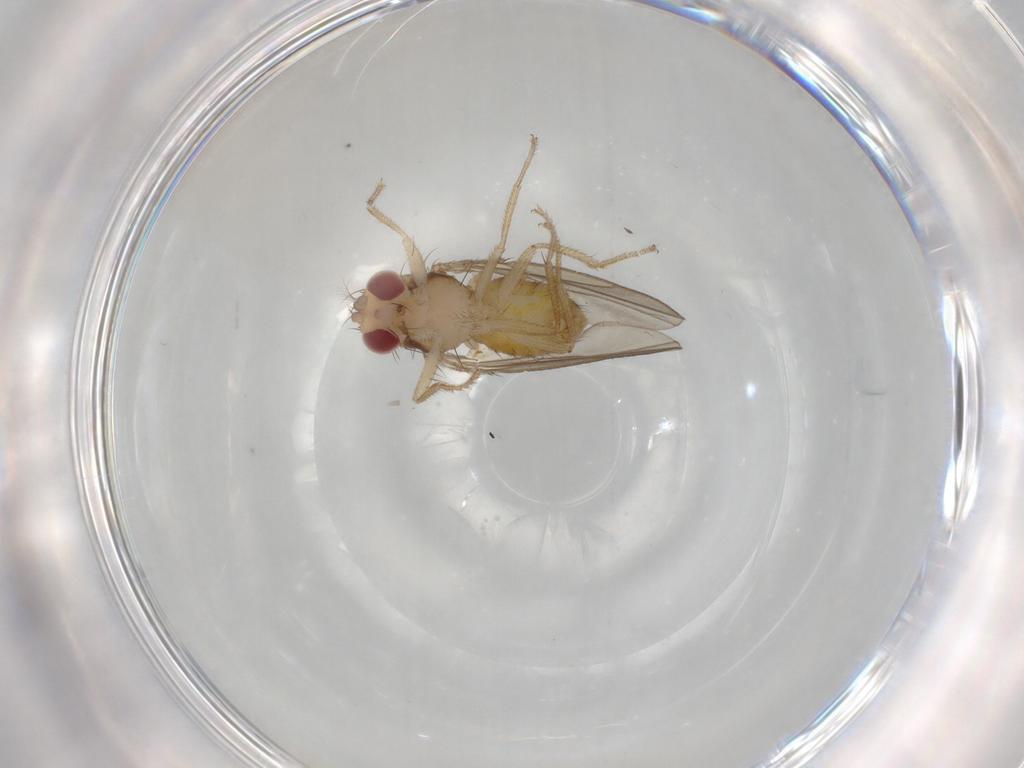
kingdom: Animalia
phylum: Arthropoda
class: Insecta
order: Diptera
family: Drosophilidae
